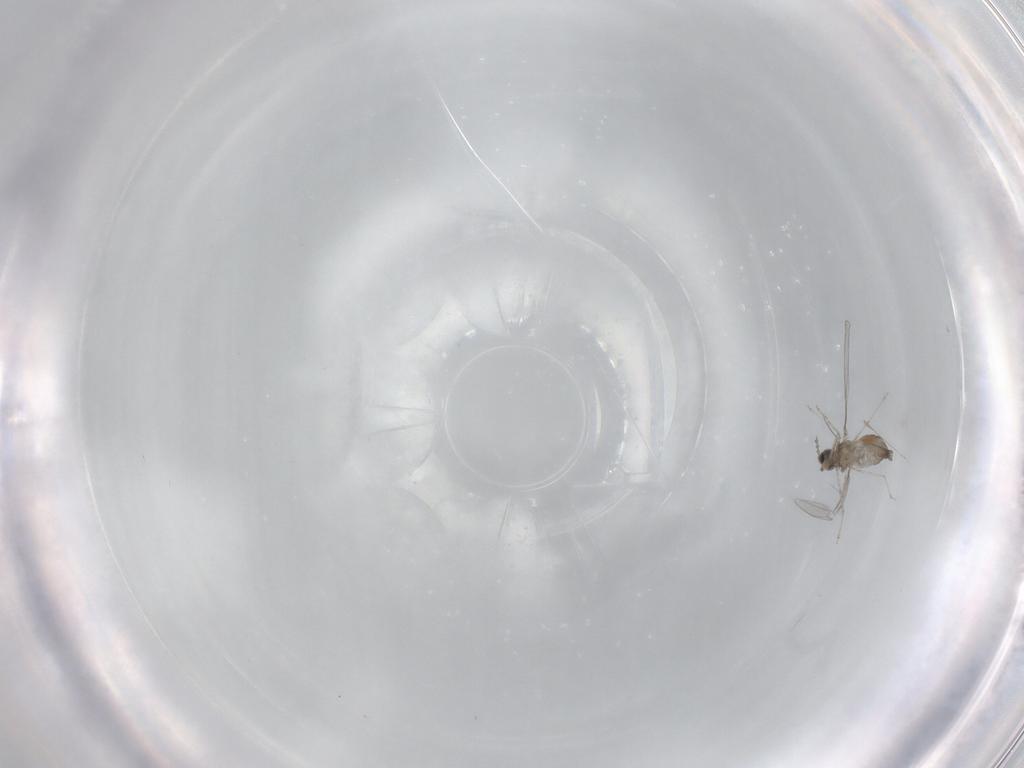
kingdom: Animalia
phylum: Arthropoda
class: Insecta
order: Diptera
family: Cecidomyiidae
